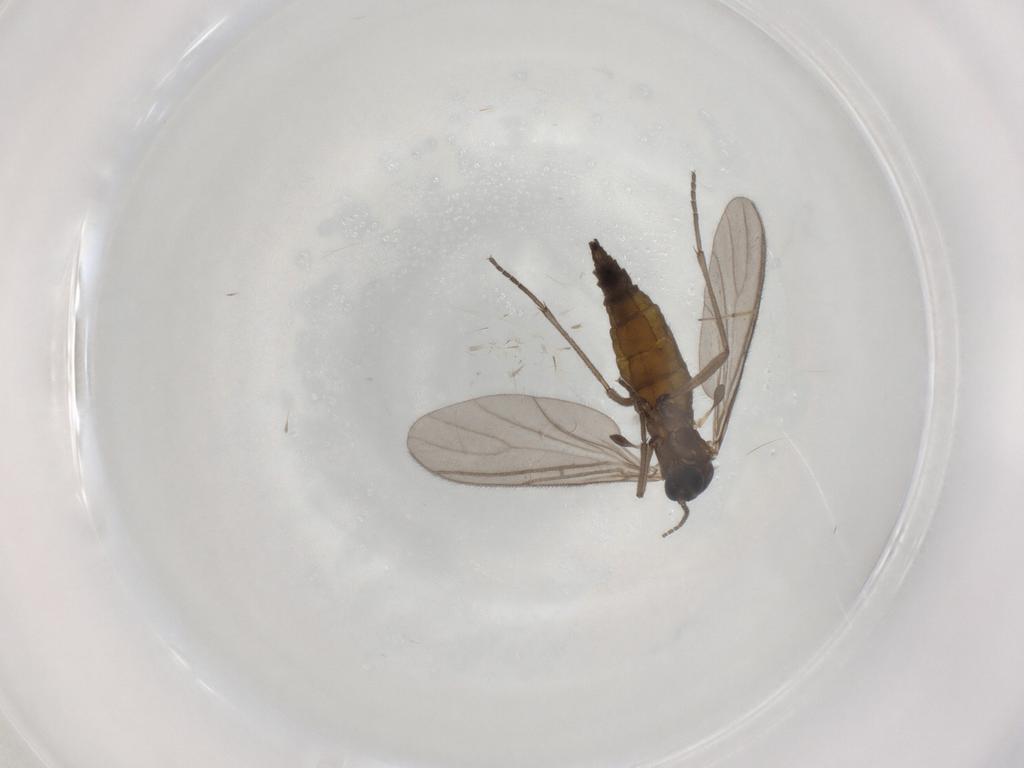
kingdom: Animalia
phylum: Arthropoda
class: Insecta
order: Diptera
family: Sciaridae
